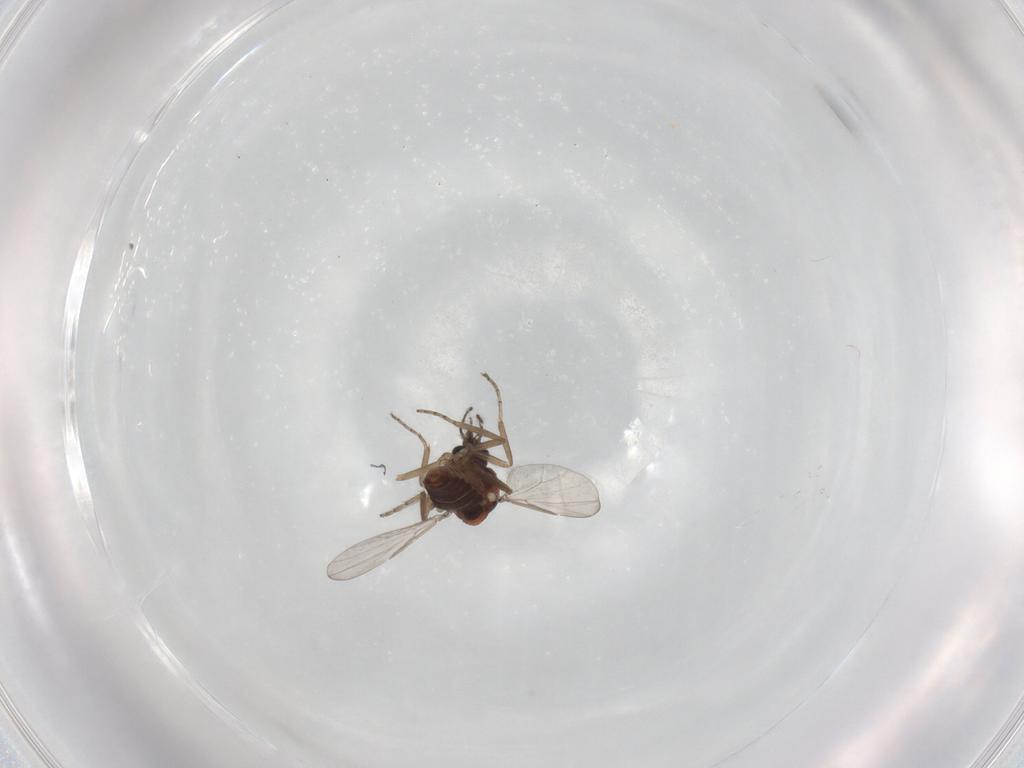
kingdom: Animalia
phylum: Arthropoda
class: Insecta
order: Diptera
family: Ceratopogonidae
